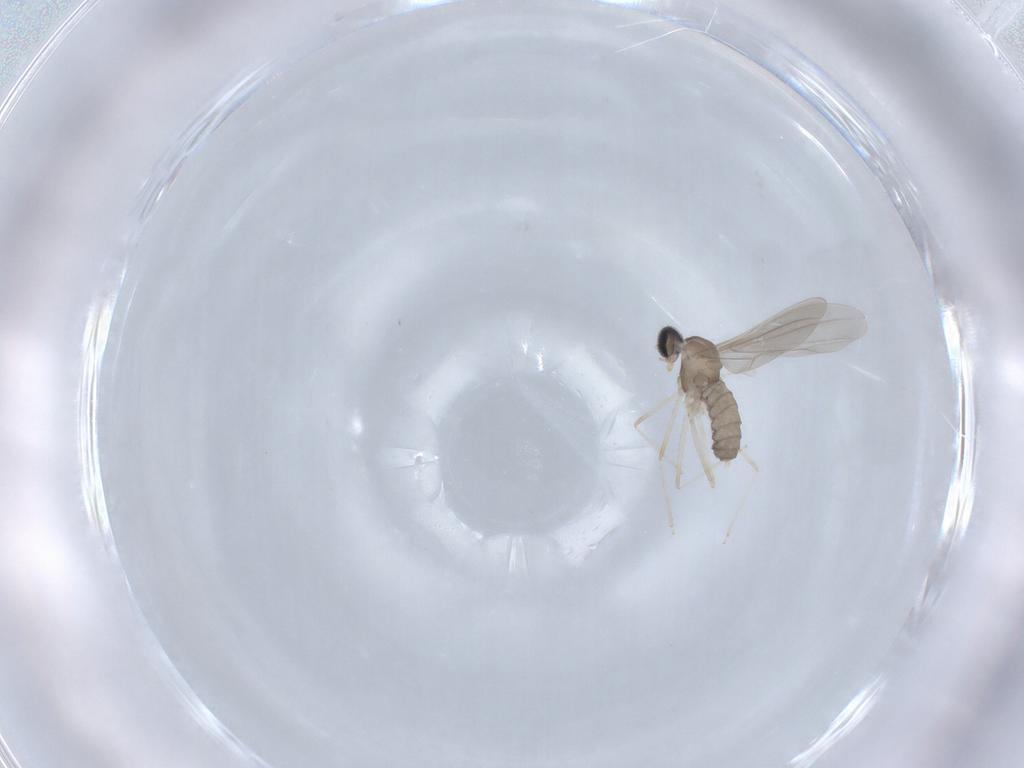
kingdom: Animalia
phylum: Arthropoda
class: Insecta
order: Diptera
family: Cecidomyiidae
